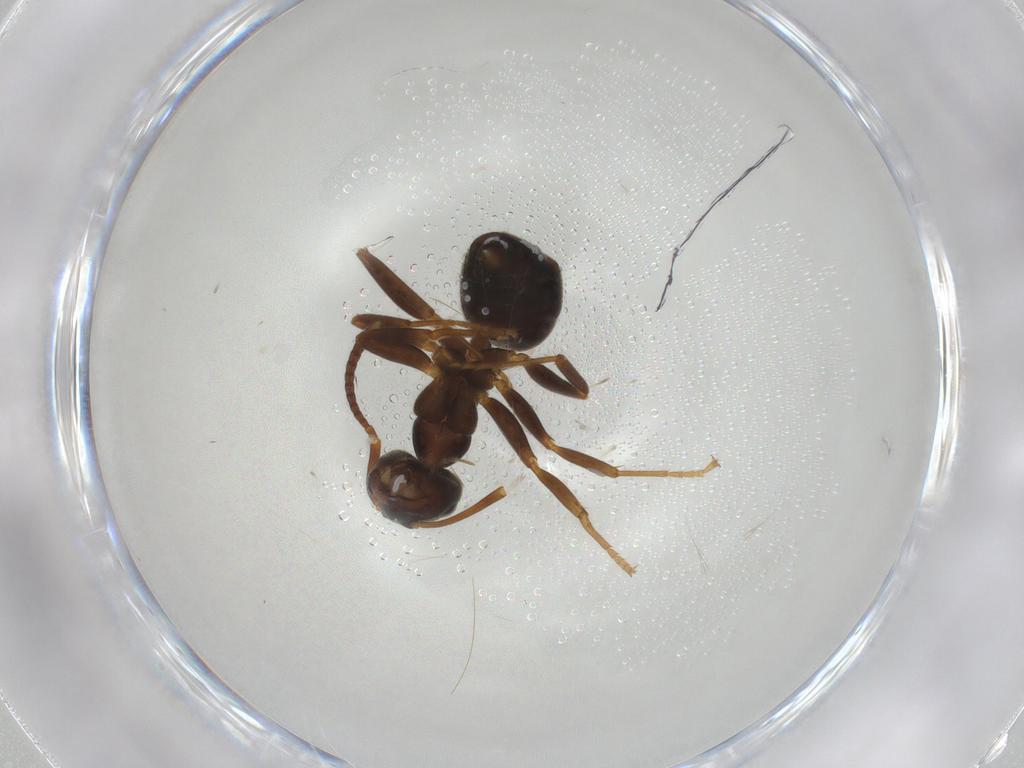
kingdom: Animalia
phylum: Arthropoda
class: Insecta
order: Hymenoptera
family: Formicidae
